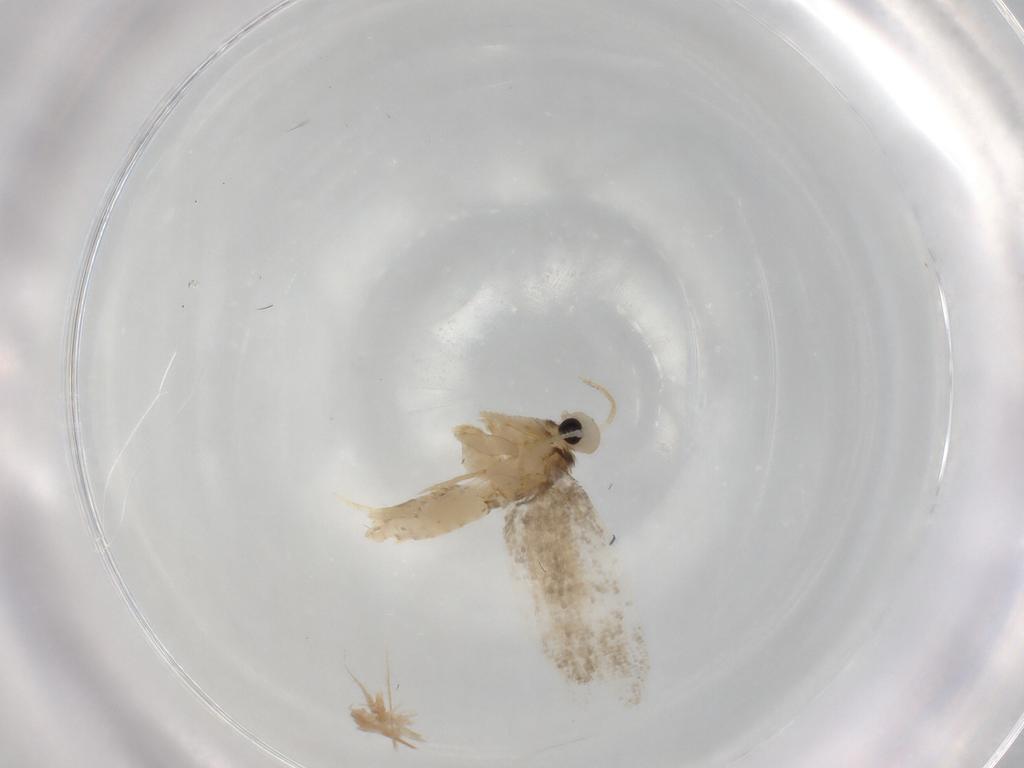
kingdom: Animalia
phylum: Arthropoda
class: Insecta
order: Lepidoptera
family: Psychidae
